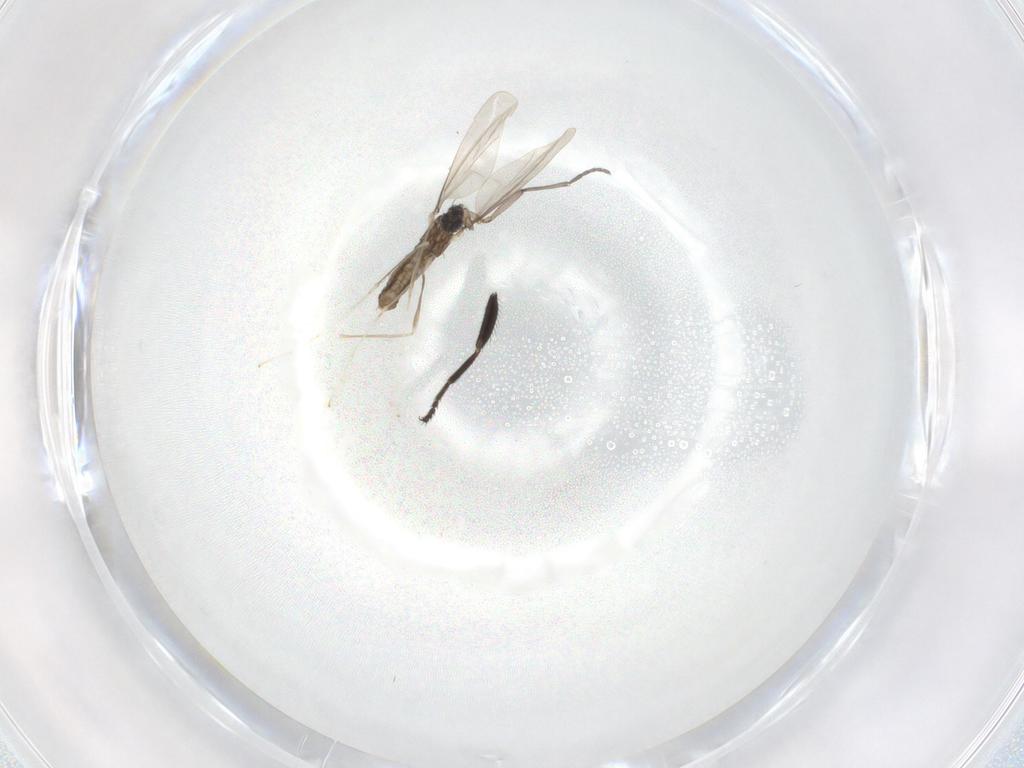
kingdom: Animalia
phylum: Arthropoda
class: Insecta
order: Diptera
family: Cecidomyiidae
